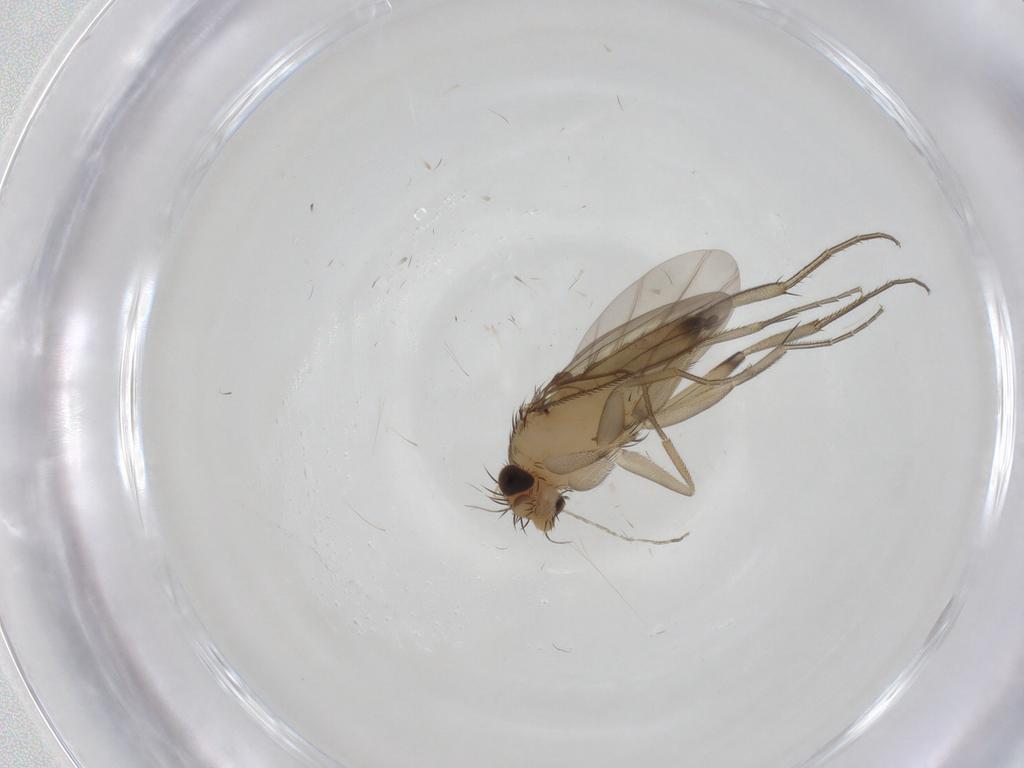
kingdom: Animalia
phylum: Arthropoda
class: Insecta
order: Diptera
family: Phoridae
